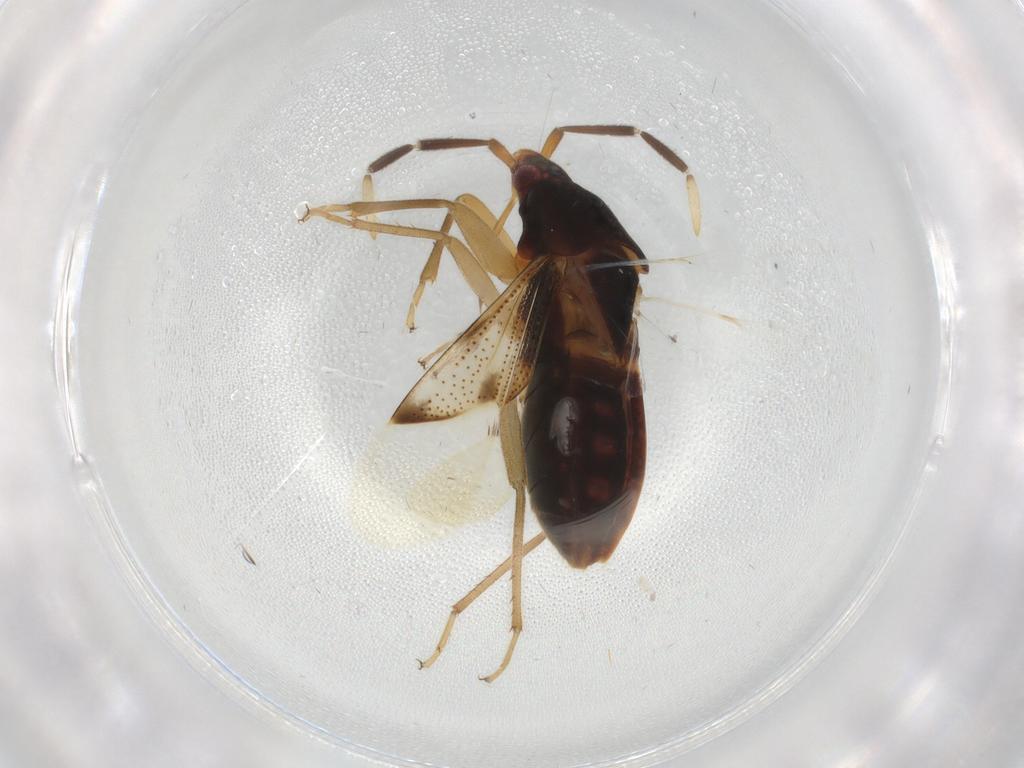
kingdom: Animalia
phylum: Arthropoda
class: Insecta
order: Hemiptera
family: Rhyparochromidae
